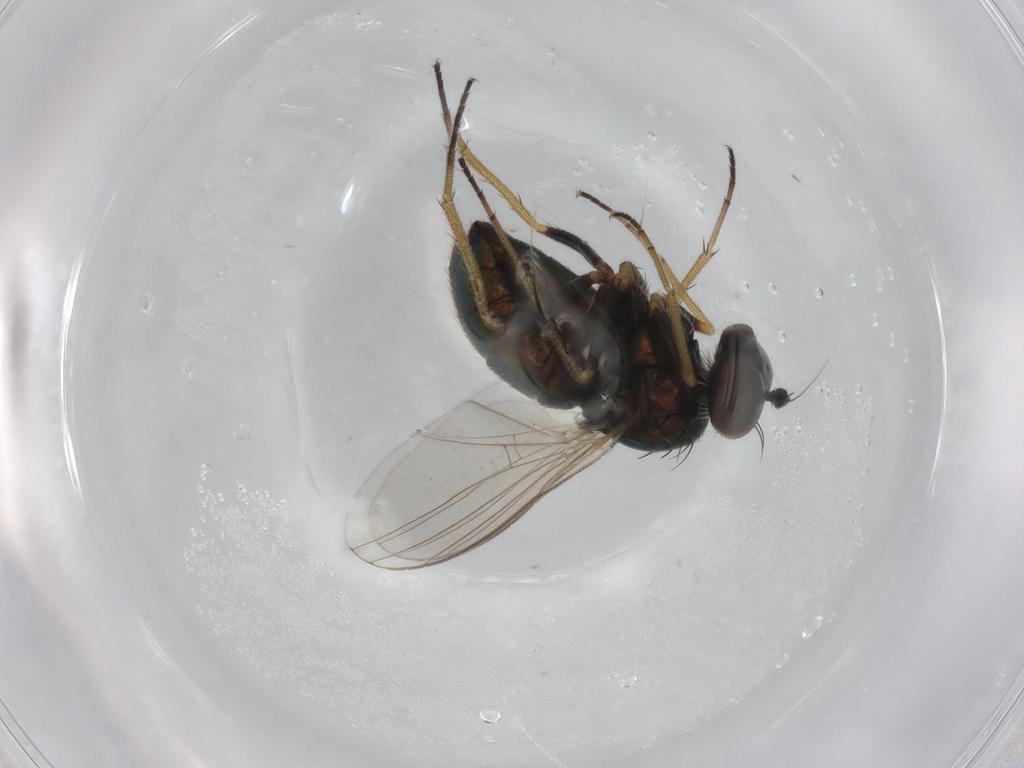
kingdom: Animalia
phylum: Arthropoda
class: Insecta
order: Diptera
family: Dolichopodidae
